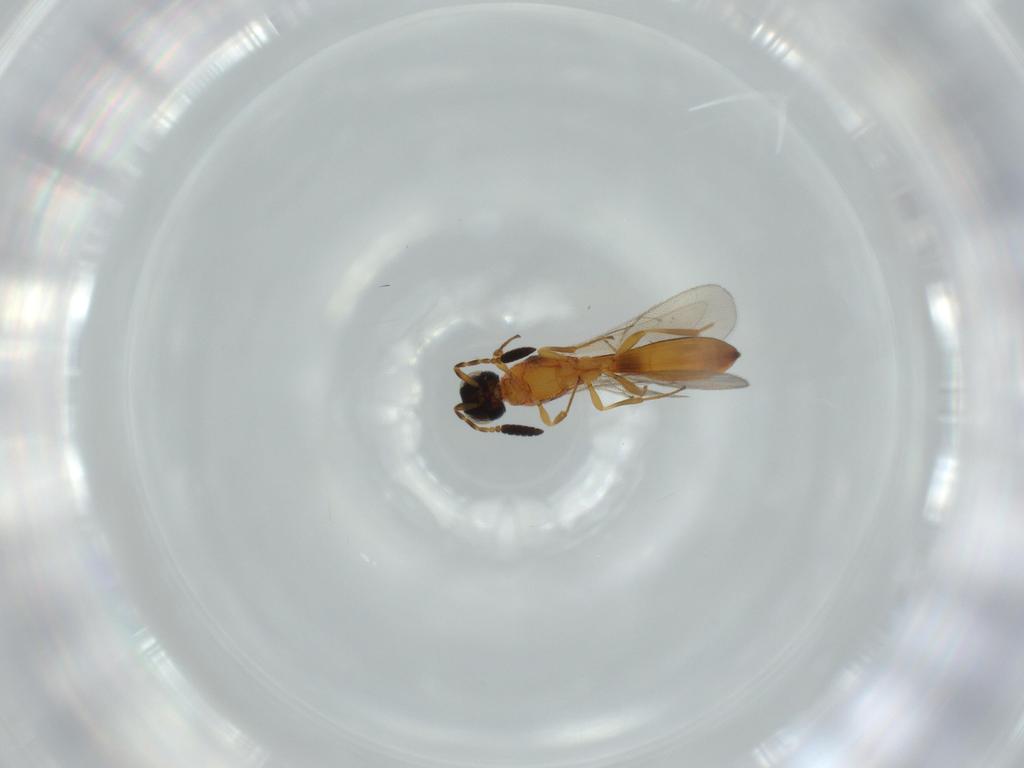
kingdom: Animalia
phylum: Arthropoda
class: Insecta
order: Hymenoptera
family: Scelionidae
